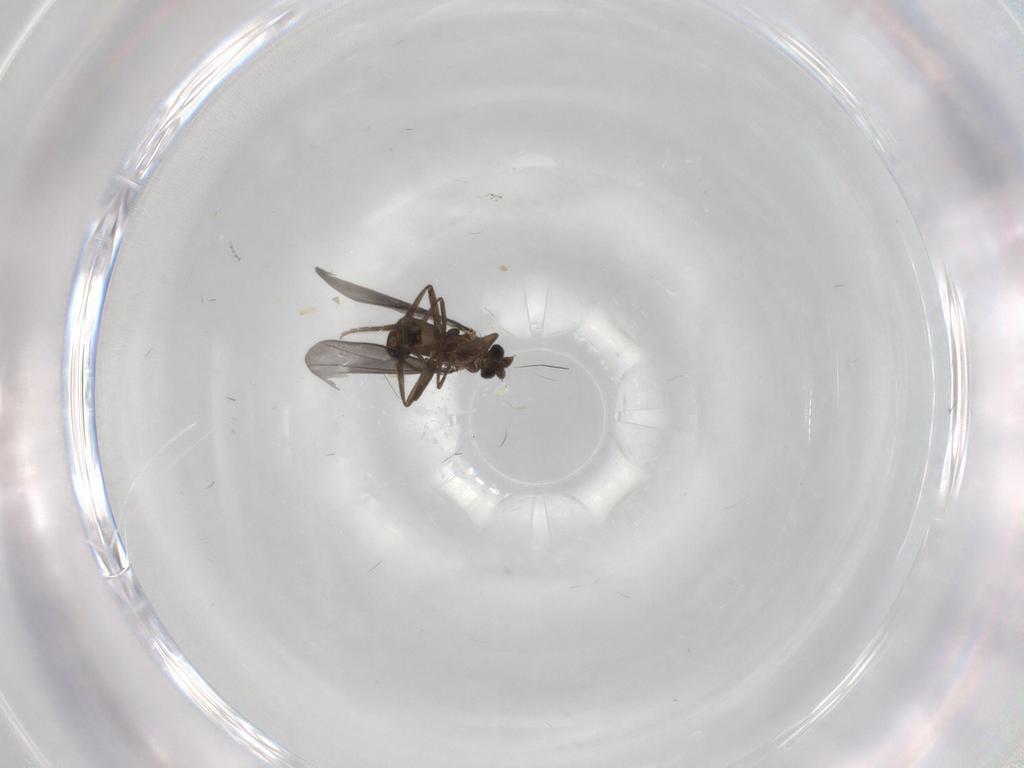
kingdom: Animalia
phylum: Arthropoda
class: Insecta
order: Diptera
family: Phoridae
